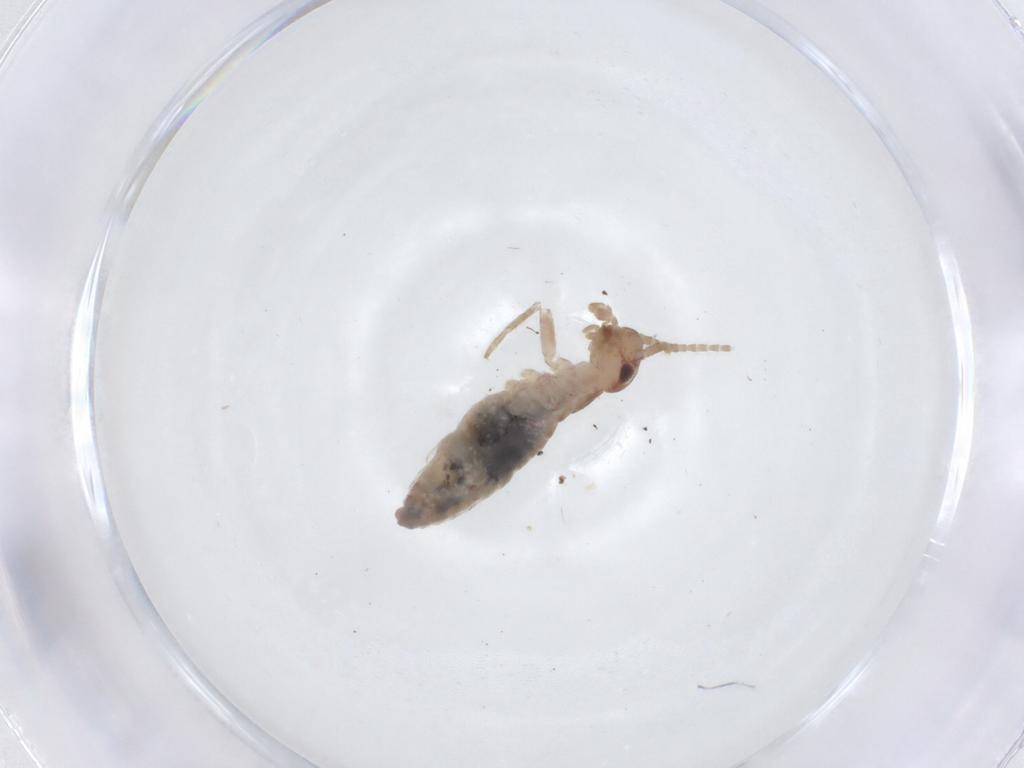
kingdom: Animalia
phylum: Arthropoda
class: Insecta
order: Orthoptera
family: Mogoplistidae
